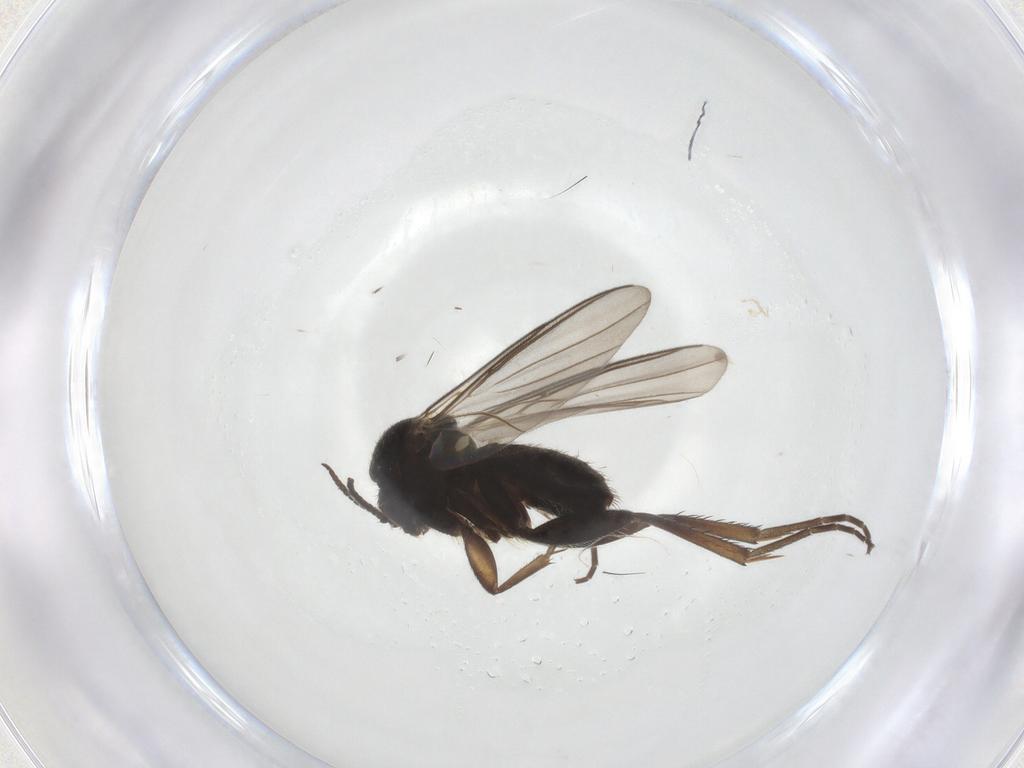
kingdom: Animalia
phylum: Arthropoda
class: Insecta
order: Diptera
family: Mycetophilidae
